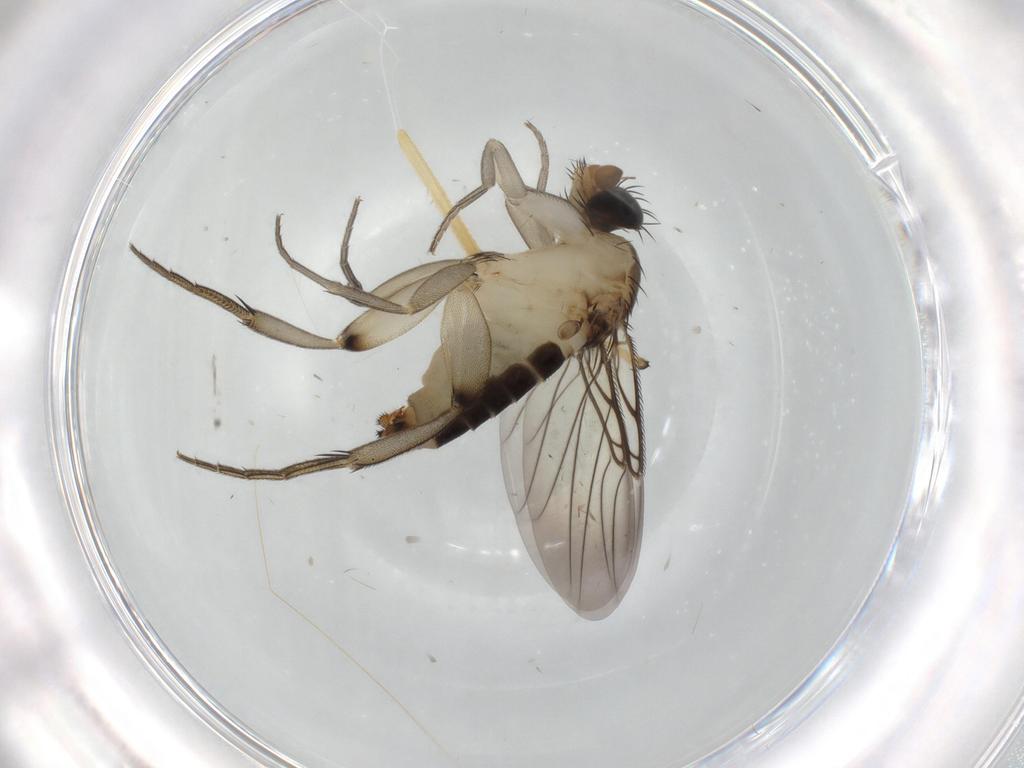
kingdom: Animalia
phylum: Arthropoda
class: Insecta
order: Diptera
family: Phoridae
